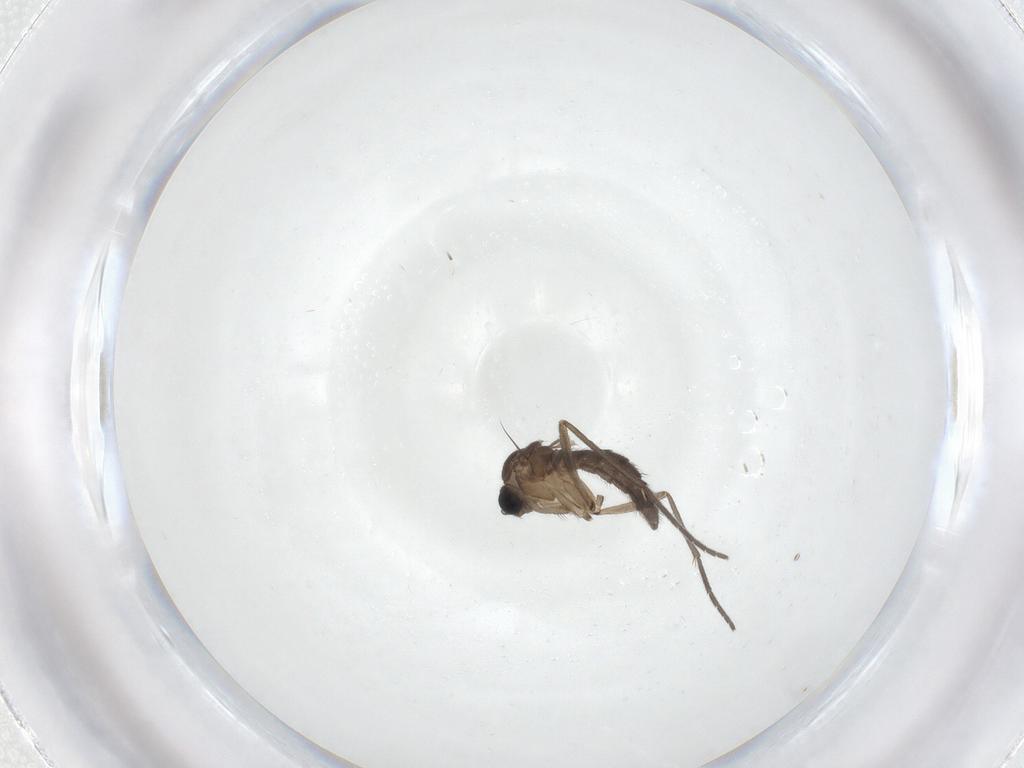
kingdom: Animalia
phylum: Arthropoda
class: Insecta
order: Diptera
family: Sciaridae
